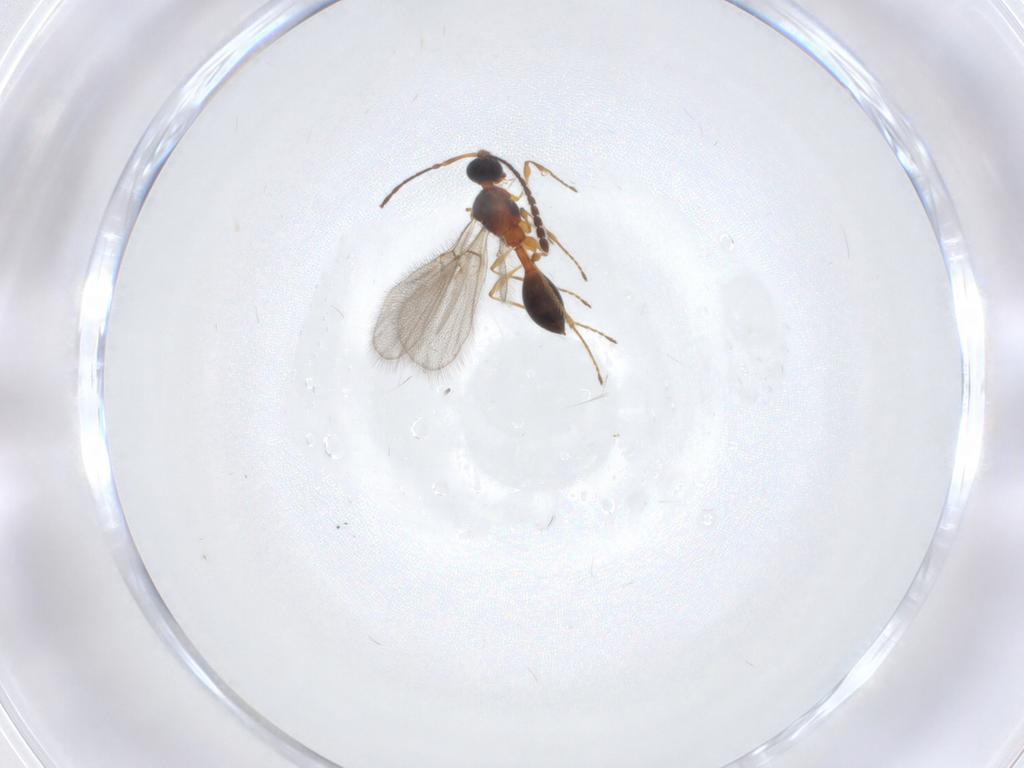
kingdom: Animalia
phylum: Arthropoda
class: Insecta
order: Hymenoptera
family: Diapriidae
